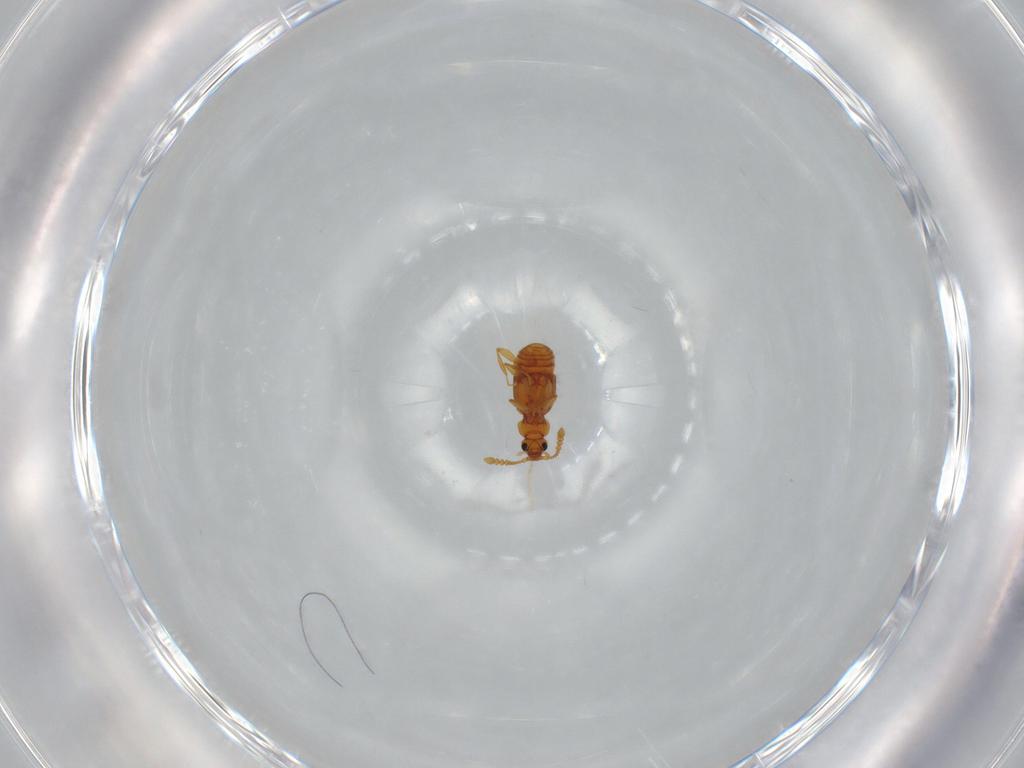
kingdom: Animalia
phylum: Arthropoda
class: Insecta
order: Coleoptera
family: Staphylinidae
